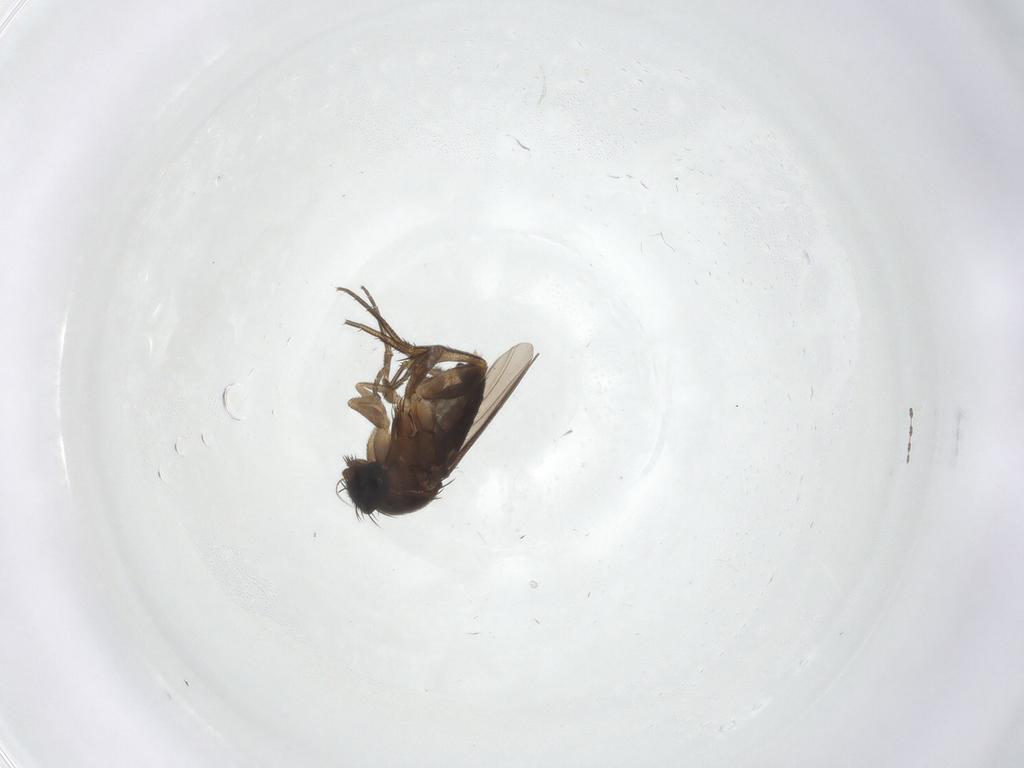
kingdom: Animalia
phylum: Arthropoda
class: Insecta
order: Diptera
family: Phoridae
